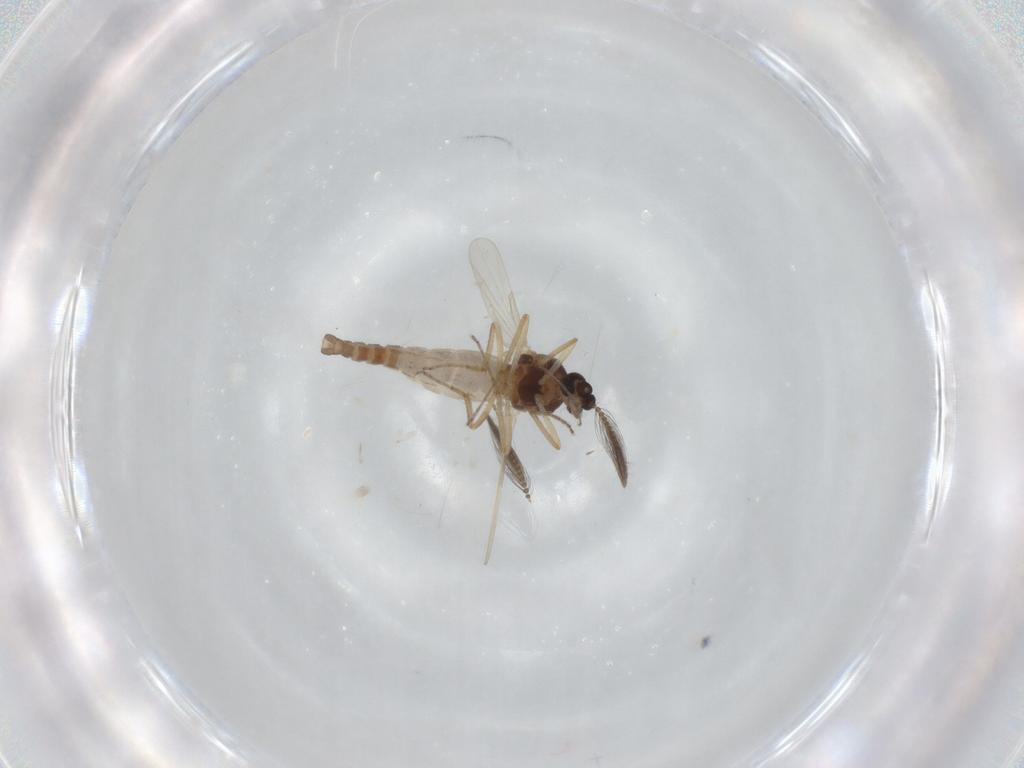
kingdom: Animalia
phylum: Arthropoda
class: Insecta
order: Diptera
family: Ceratopogonidae
